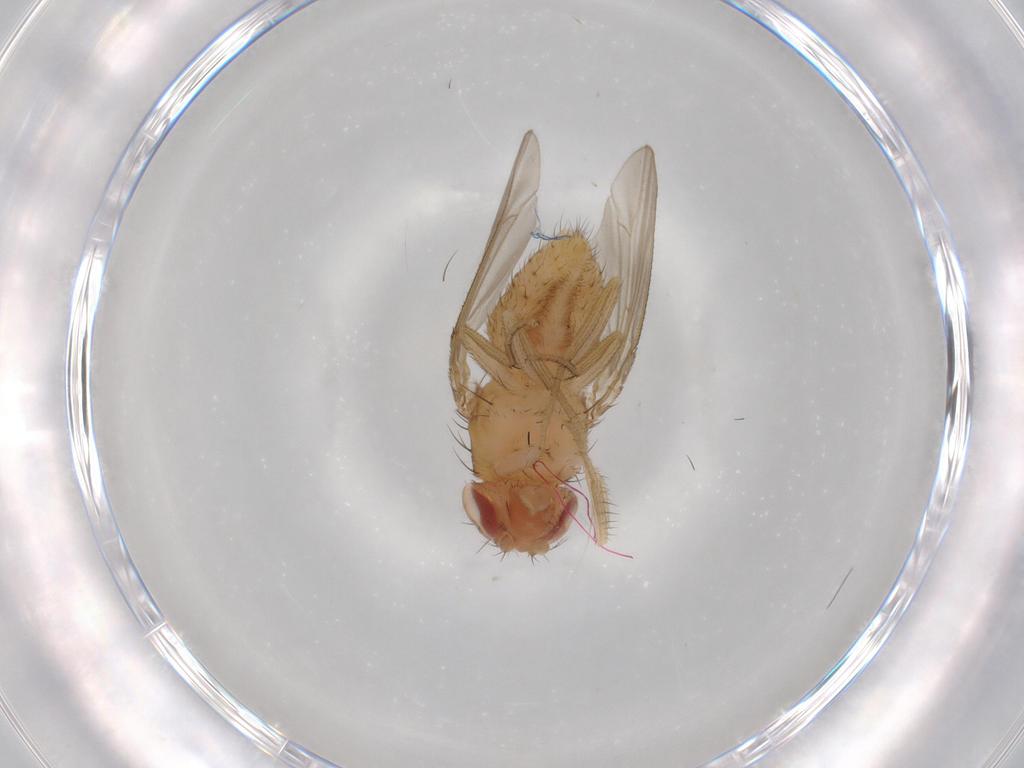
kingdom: Animalia
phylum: Arthropoda
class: Insecta
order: Diptera
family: Drosophilidae
